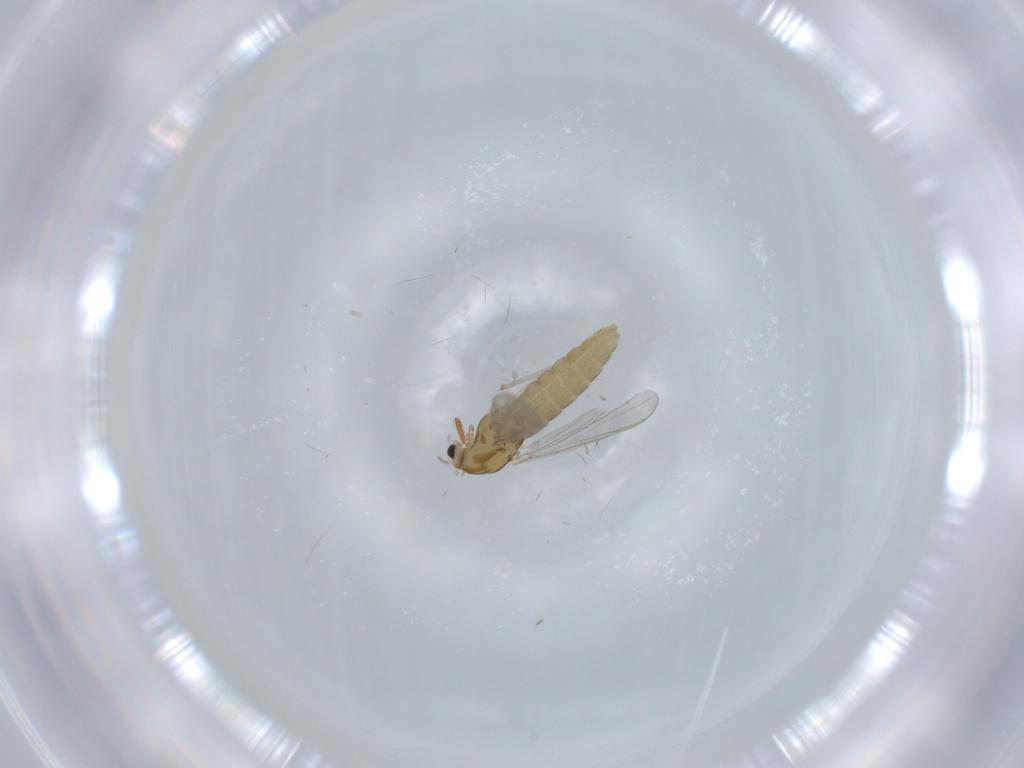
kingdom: Animalia
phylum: Arthropoda
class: Insecta
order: Diptera
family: Chironomidae
